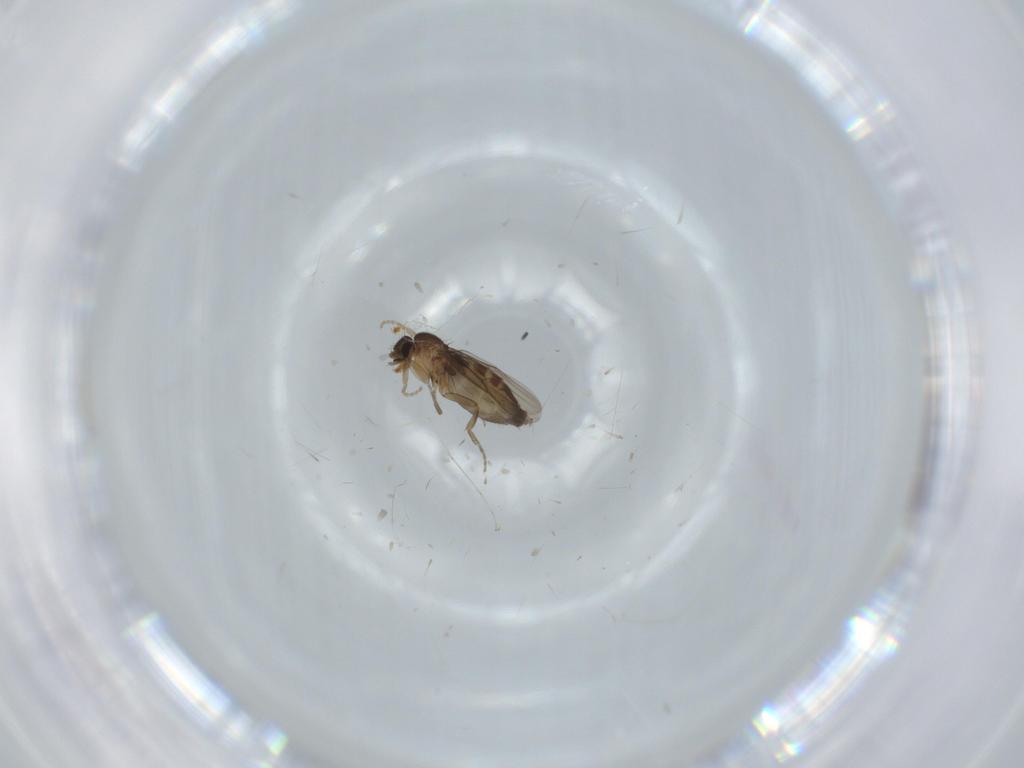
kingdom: Animalia
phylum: Arthropoda
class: Insecta
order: Diptera
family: Phoridae
